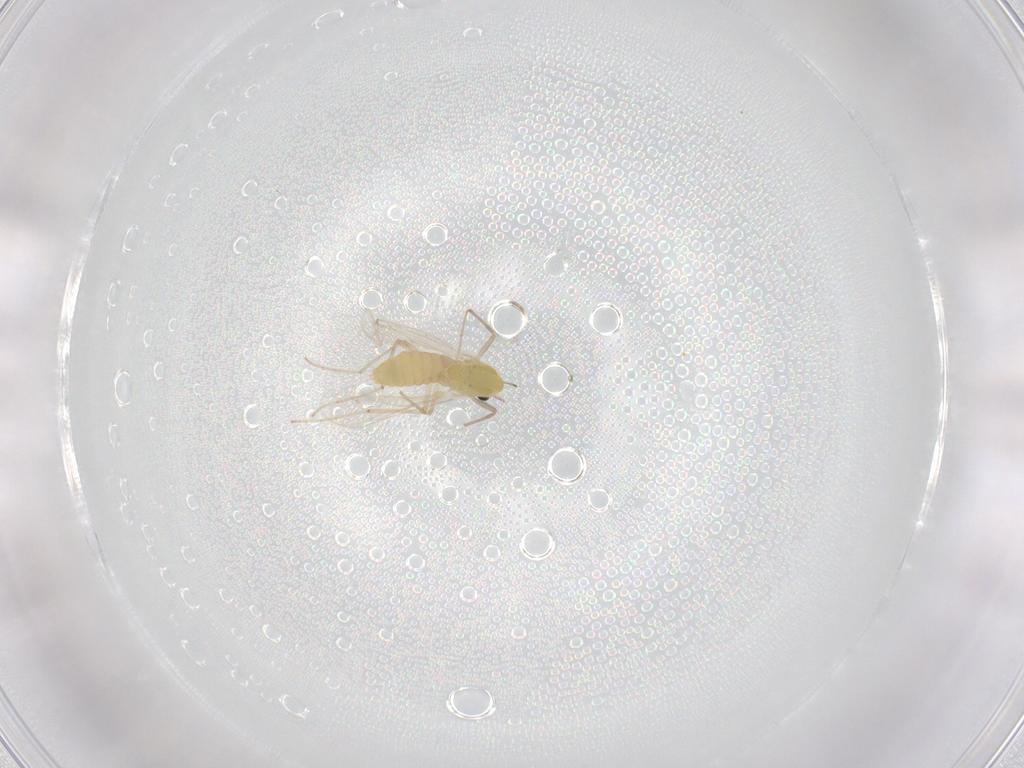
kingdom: Animalia
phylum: Arthropoda
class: Insecta
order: Diptera
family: Chironomidae
